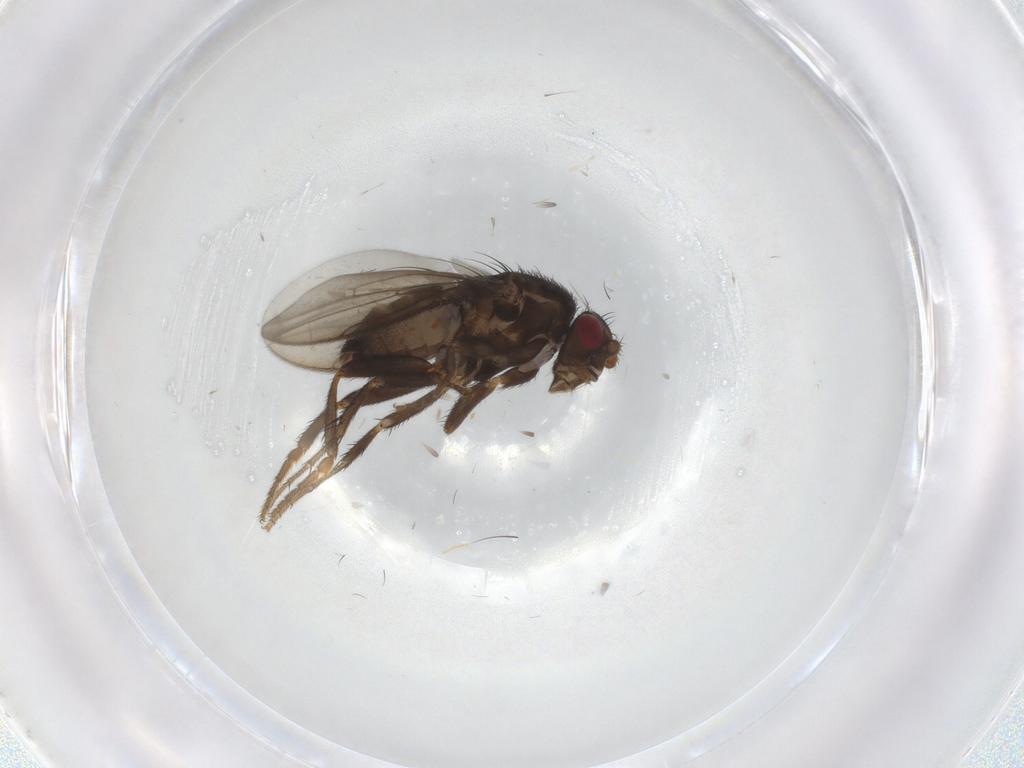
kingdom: Animalia
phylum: Arthropoda
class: Insecta
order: Diptera
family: Sphaeroceridae
